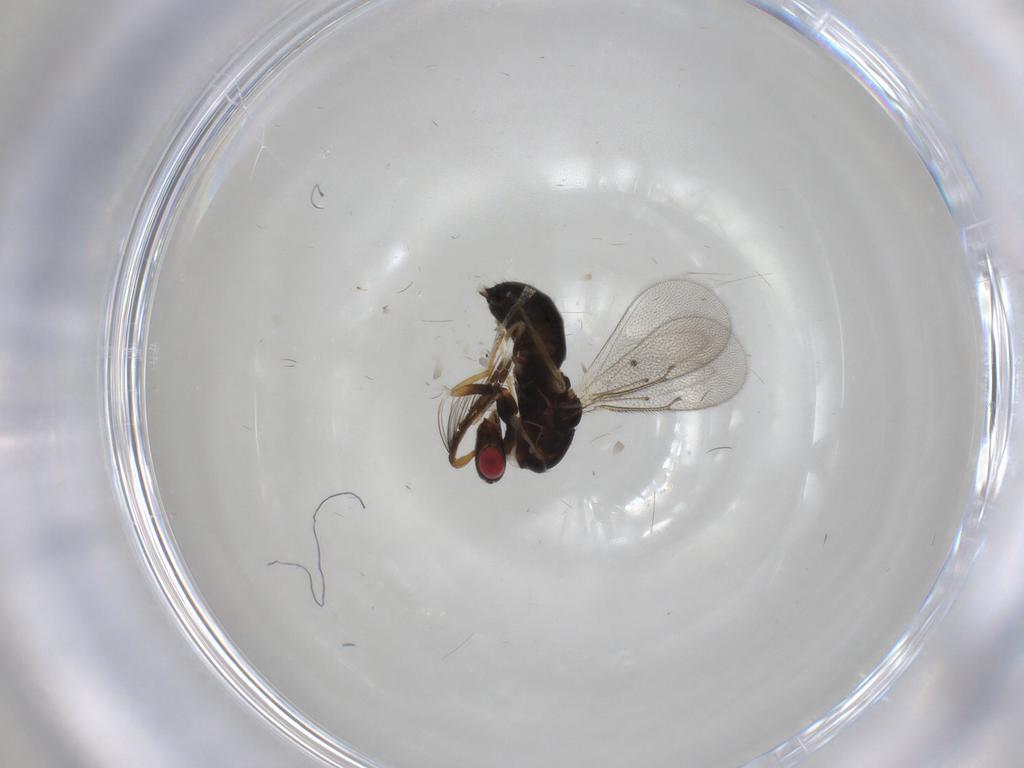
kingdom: Animalia
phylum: Arthropoda
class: Insecta
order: Hymenoptera
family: Eulophidae
